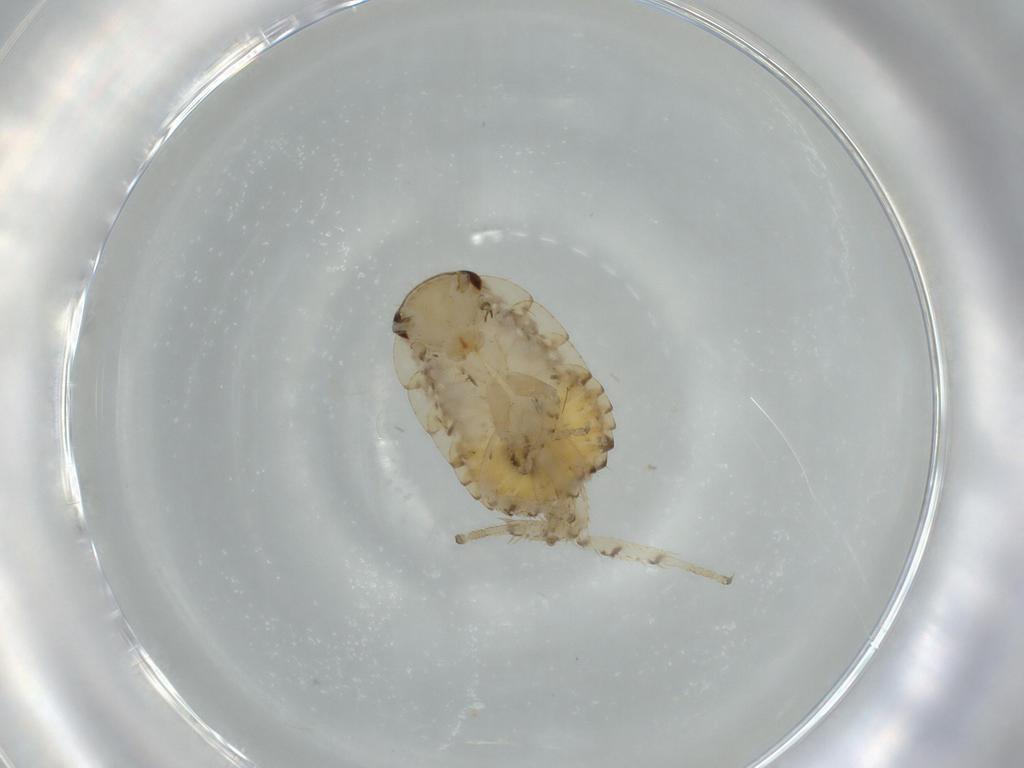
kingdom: Animalia
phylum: Arthropoda
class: Insecta
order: Blattodea
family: Ectobiidae
